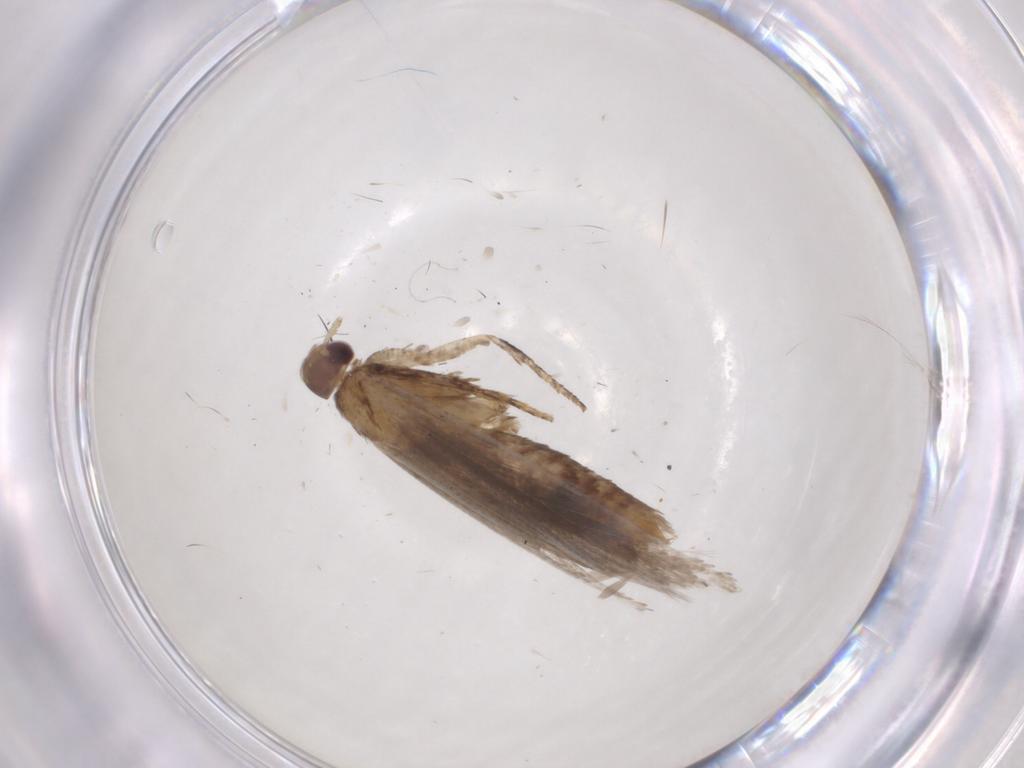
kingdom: Animalia
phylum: Arthropoda
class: Insecta
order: Lepidoptera
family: Gelechiidae
